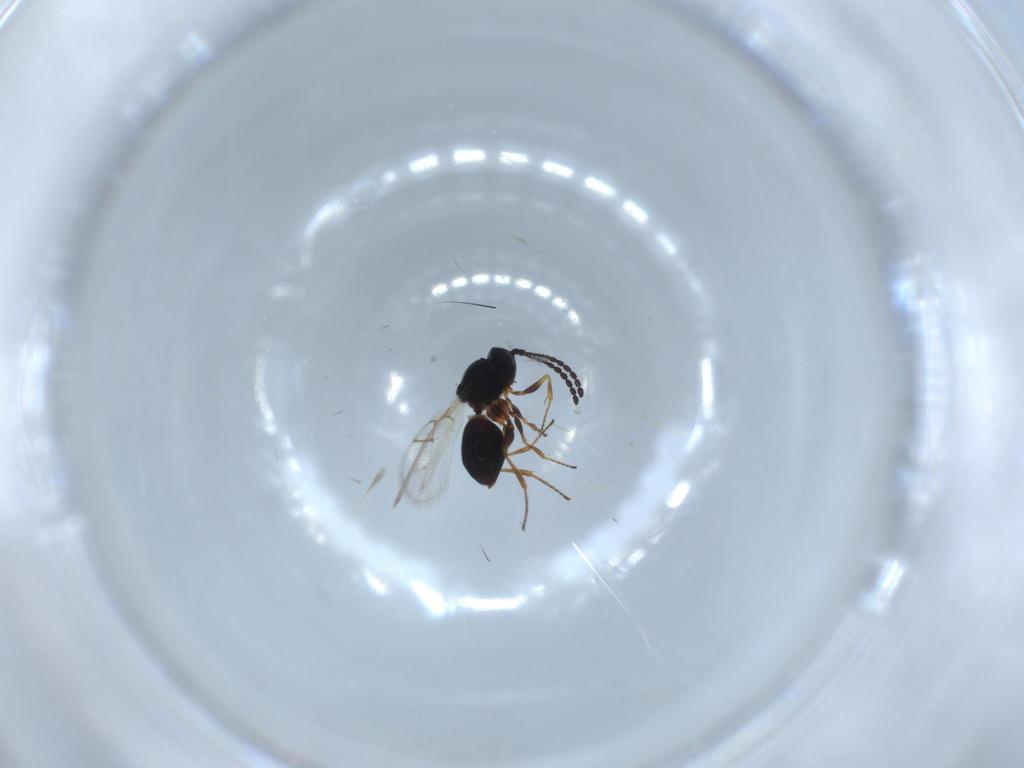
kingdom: Animalia
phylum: Arthropoda
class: Insecta
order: Hymenoptera
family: Figitidae
